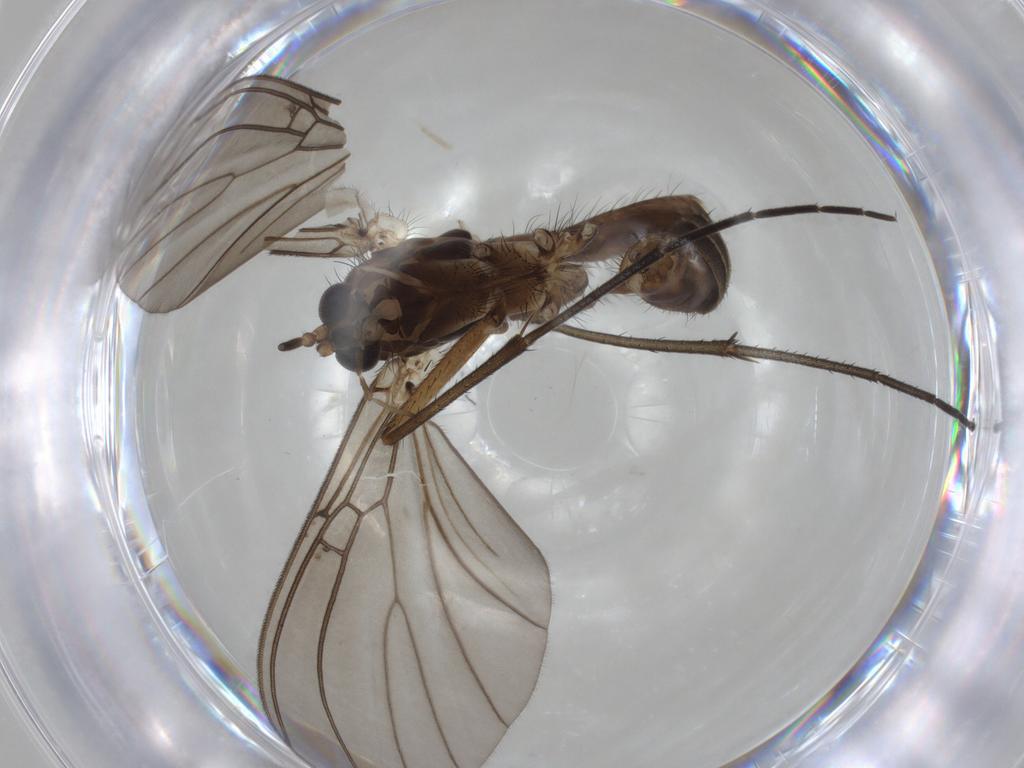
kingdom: Animalia
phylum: Arthropoda
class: Insecta
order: Diptera
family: Mycetophilidae
